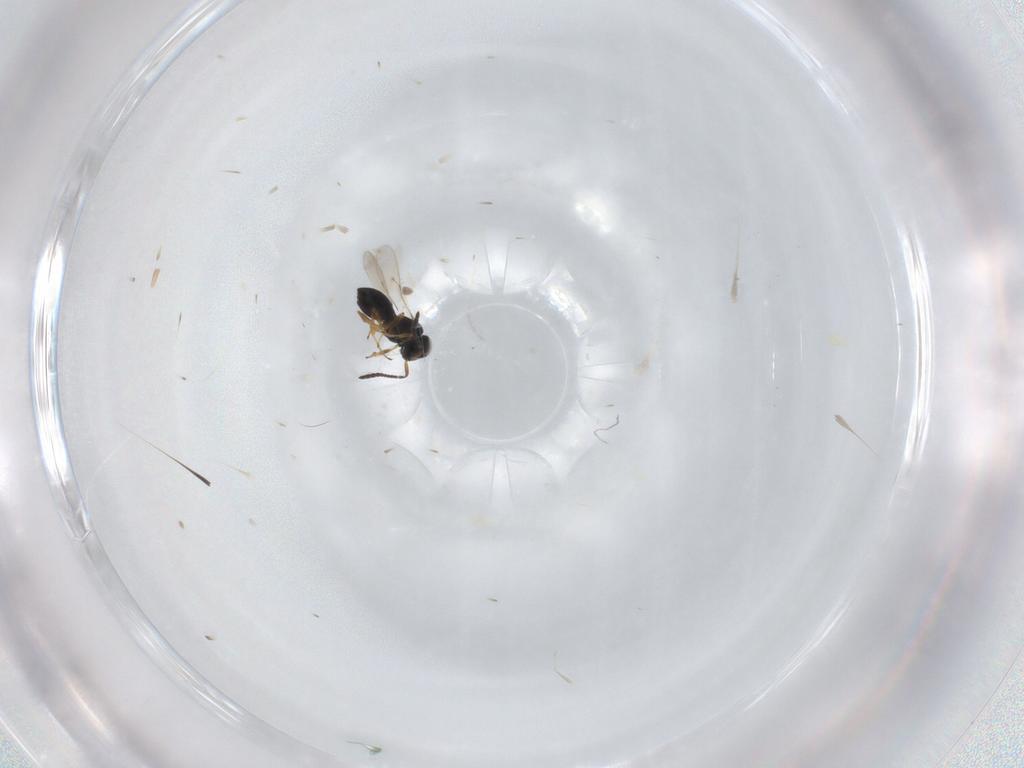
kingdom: Animalia
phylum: Arthropoda
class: Insecta
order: Hymenoptera
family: Scelionidae
